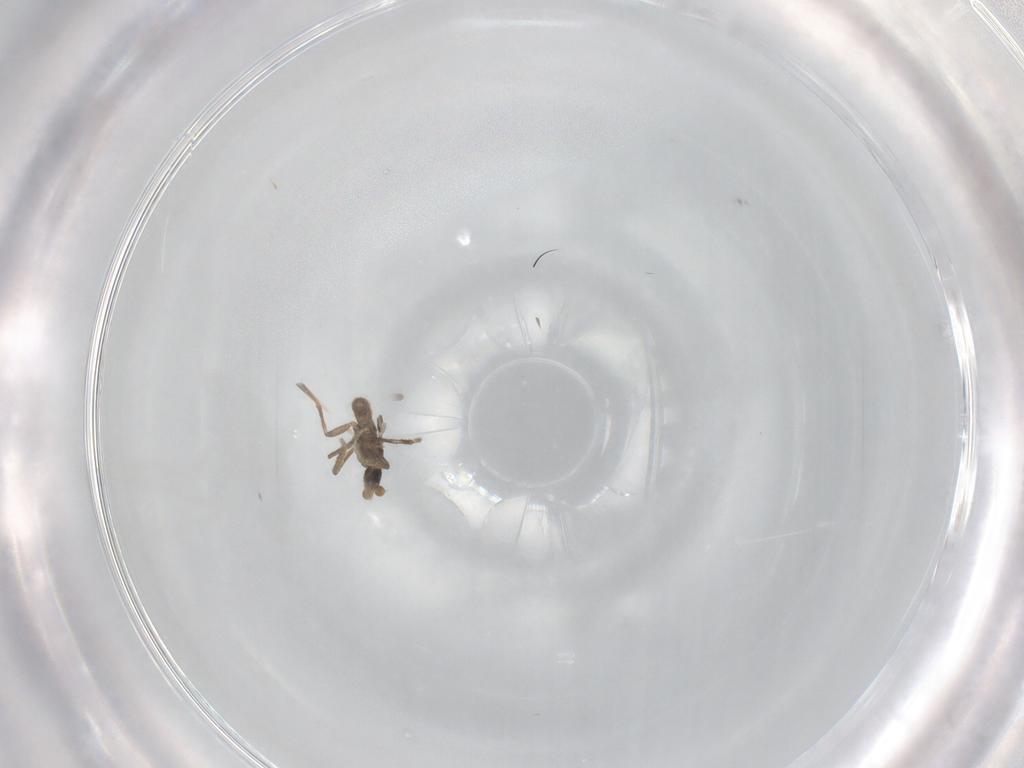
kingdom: Animalia
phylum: Arthropoda
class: Insecta
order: Diptera
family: Phoridae
